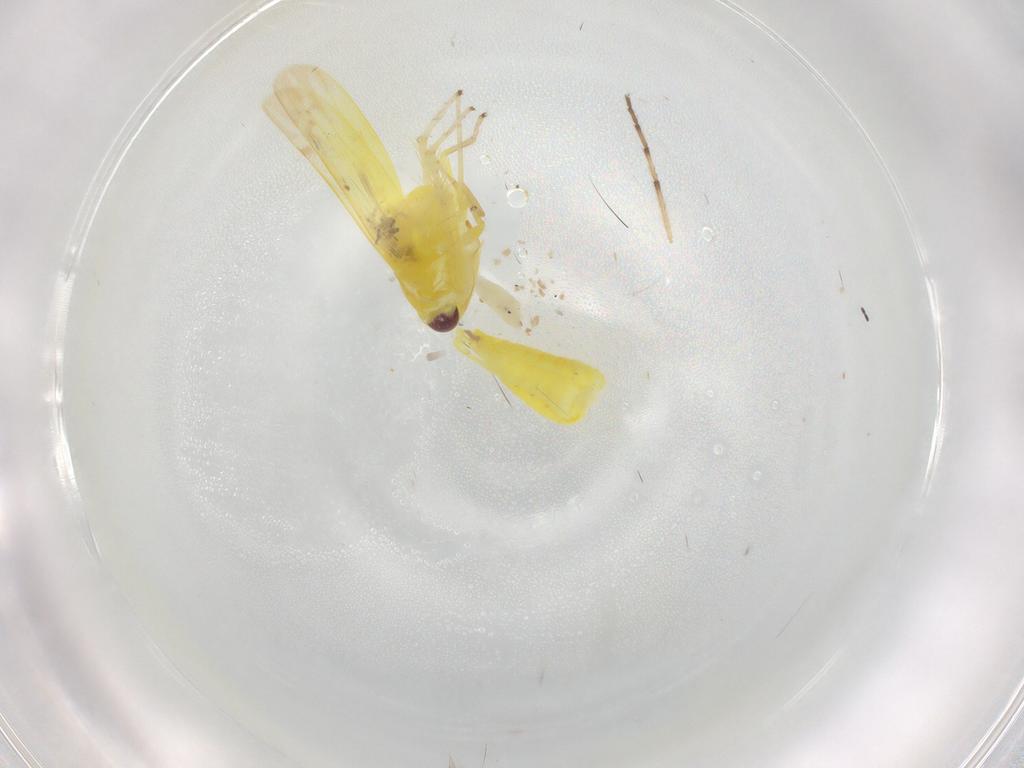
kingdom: Animalia
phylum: Arthropoda
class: Insecta
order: Hemiptera
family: Cicadellidae
